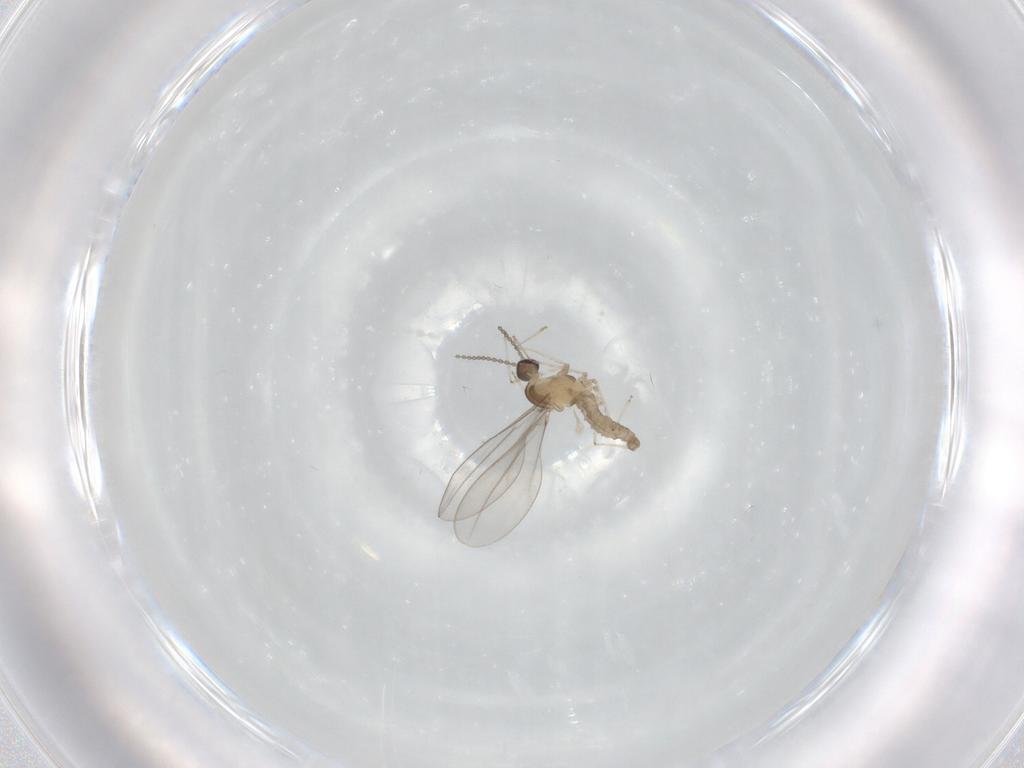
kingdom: Animalia
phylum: Arthropoda
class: Insecta
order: Diptera
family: Cecidomyiidae
